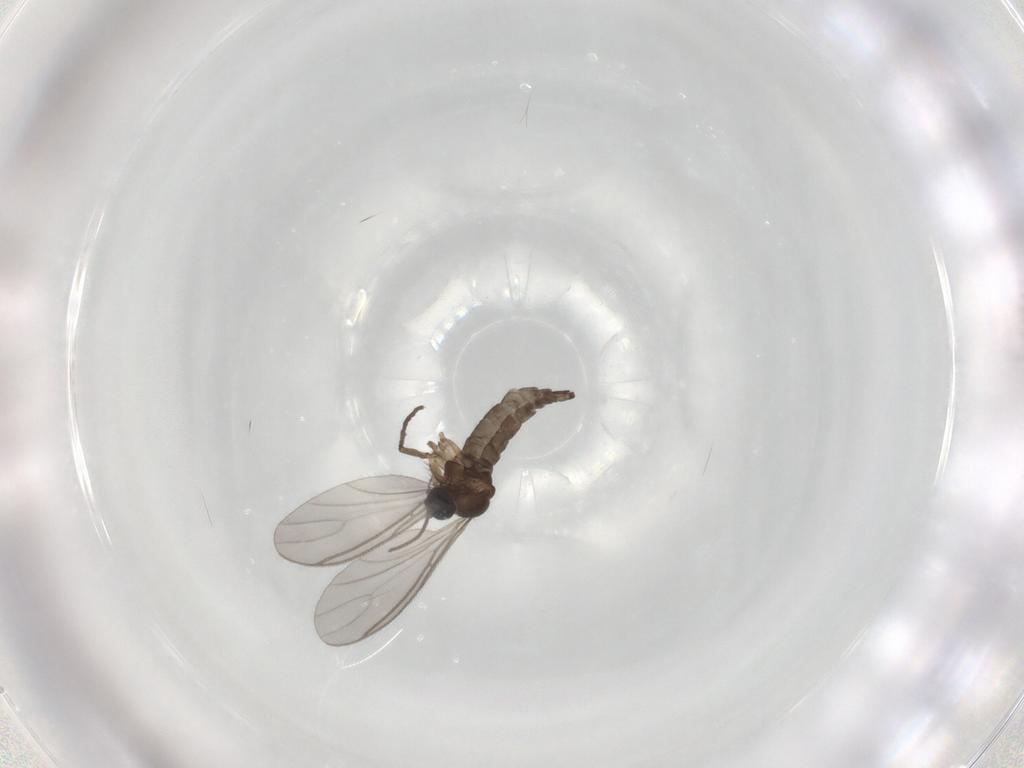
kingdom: Animalia
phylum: Arthropoda
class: Insecta
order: Diptera
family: Sciaridae
